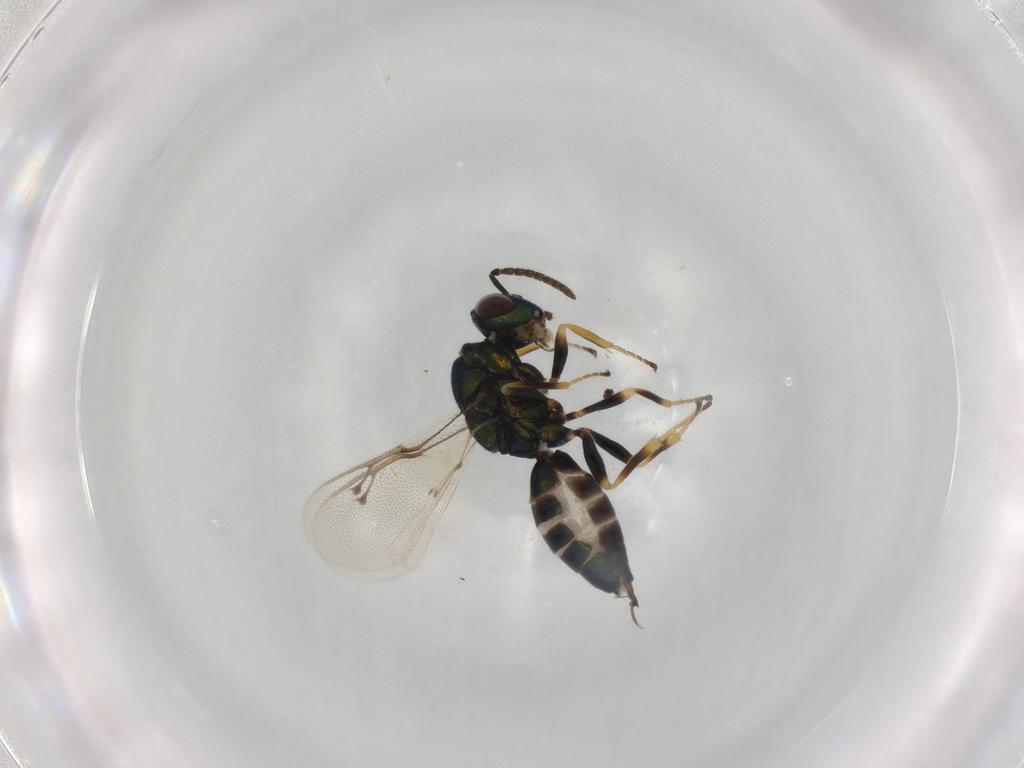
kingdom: Animalia
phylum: Arthropoda
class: Insecta
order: Hymenoptera
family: Pteromalidae
